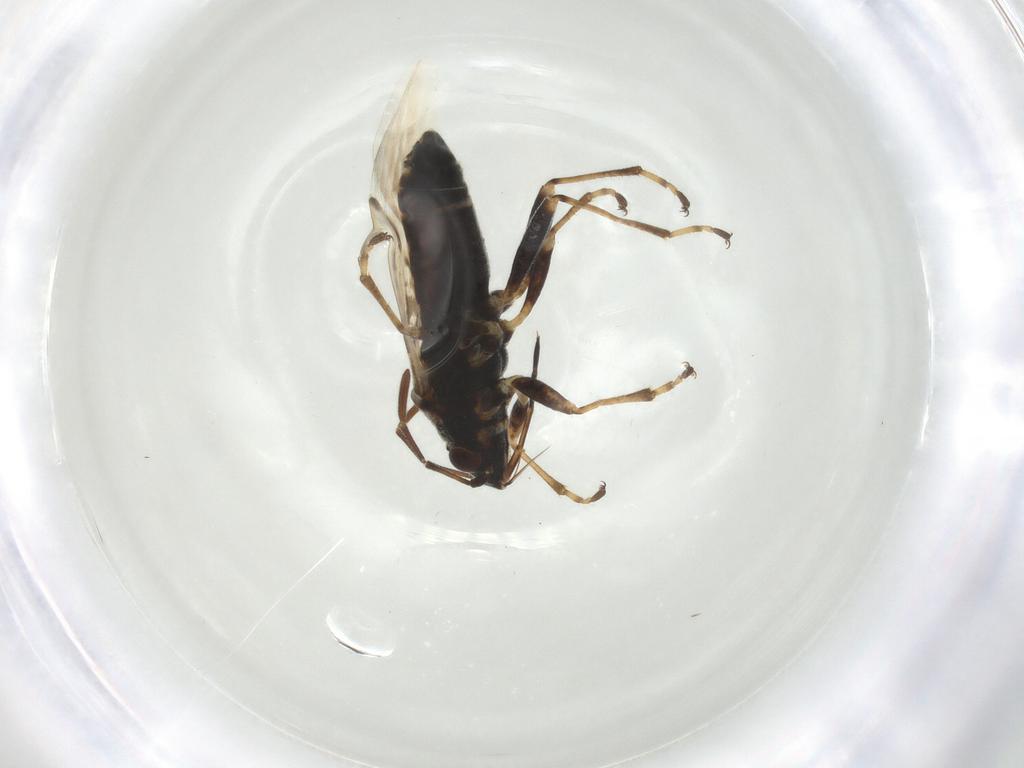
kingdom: Animalia
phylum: Arthropoda
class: Insecta
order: Hemiptera
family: Lygaeidae
